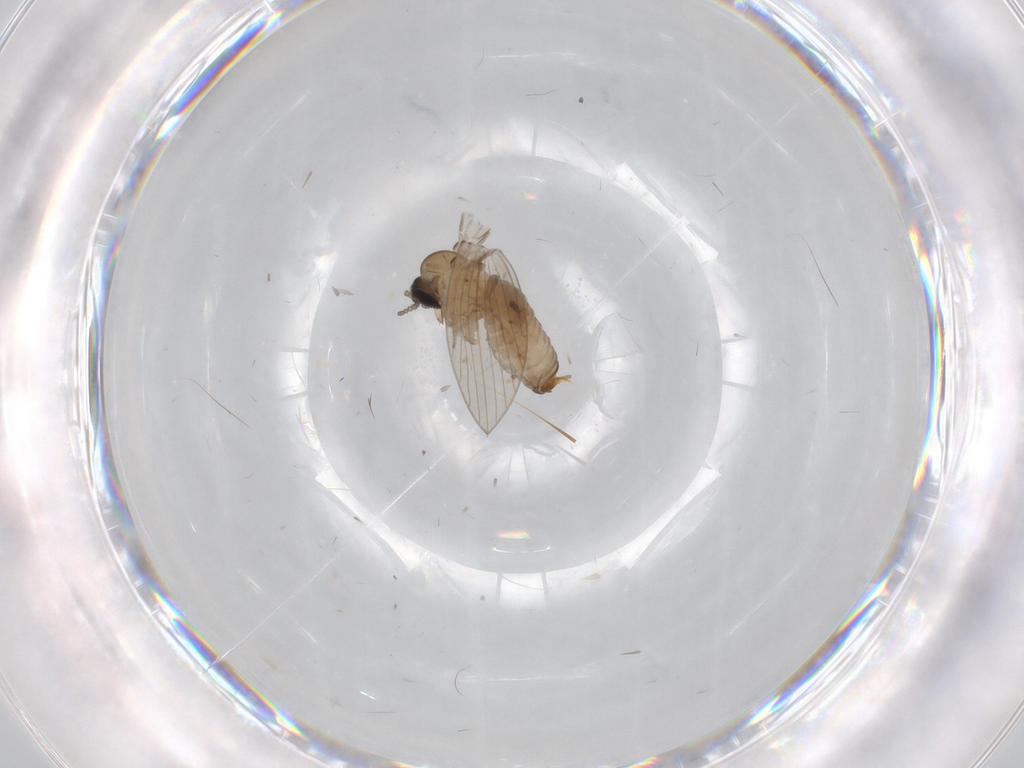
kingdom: Animalia
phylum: Arthropoda
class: Insecta
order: Diptera
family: Psychodidae
